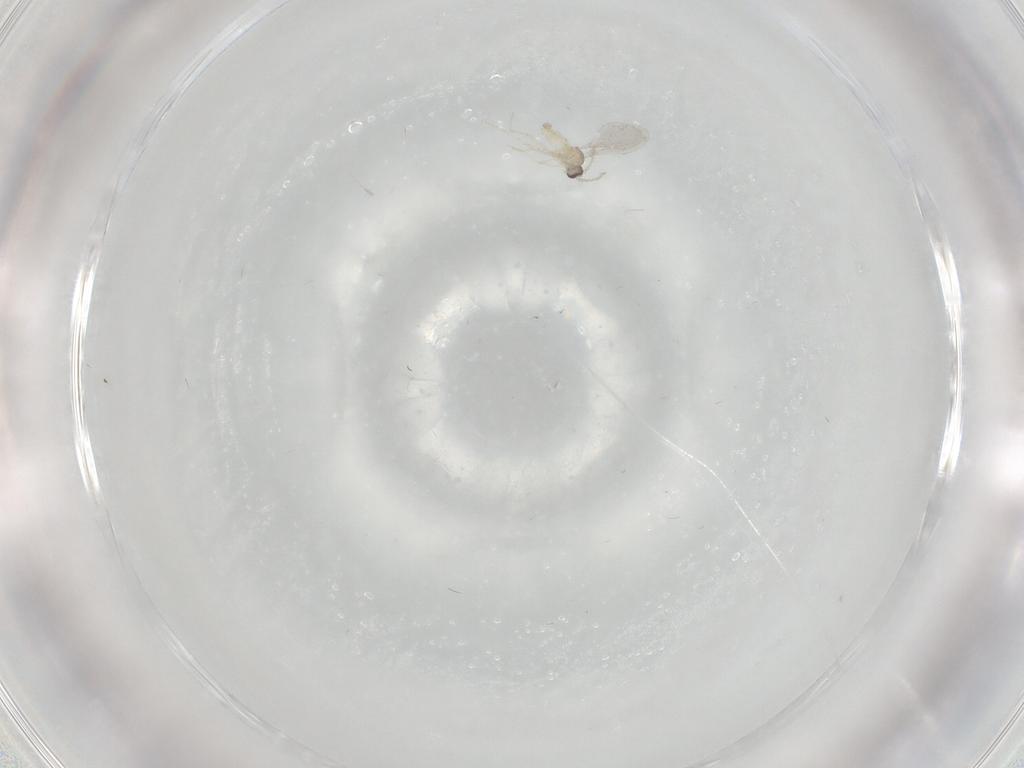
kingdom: Animalia
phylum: Arthropoda
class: Insecta
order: Diptera
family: Cecidomyiidae
